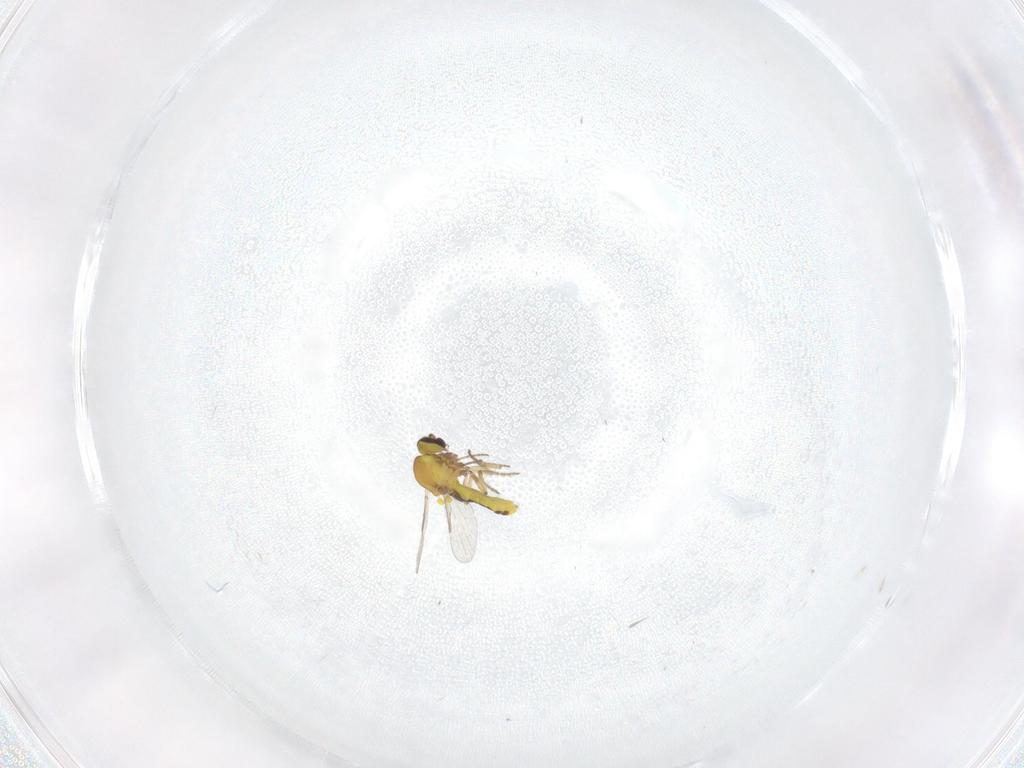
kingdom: Animalia
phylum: Arthropoda
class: Insecta
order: Diptera
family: Ceratopogonidae
